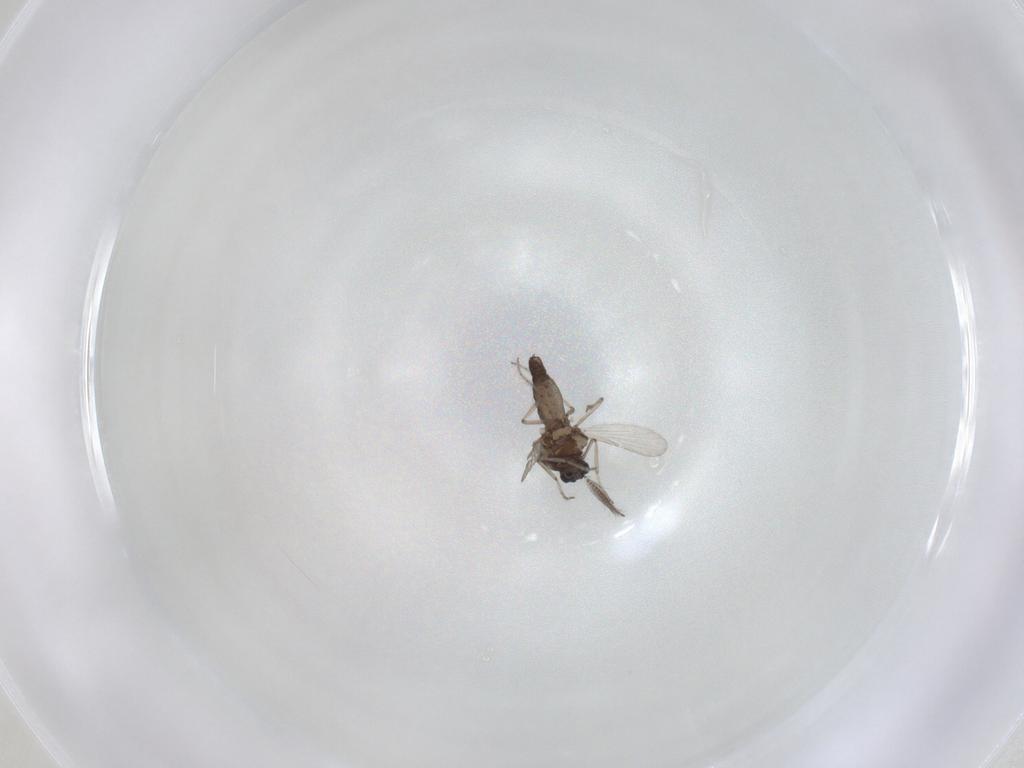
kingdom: Animalia
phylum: Arthropoda
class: Insecta
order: Diptera
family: Ceratopogonidae
